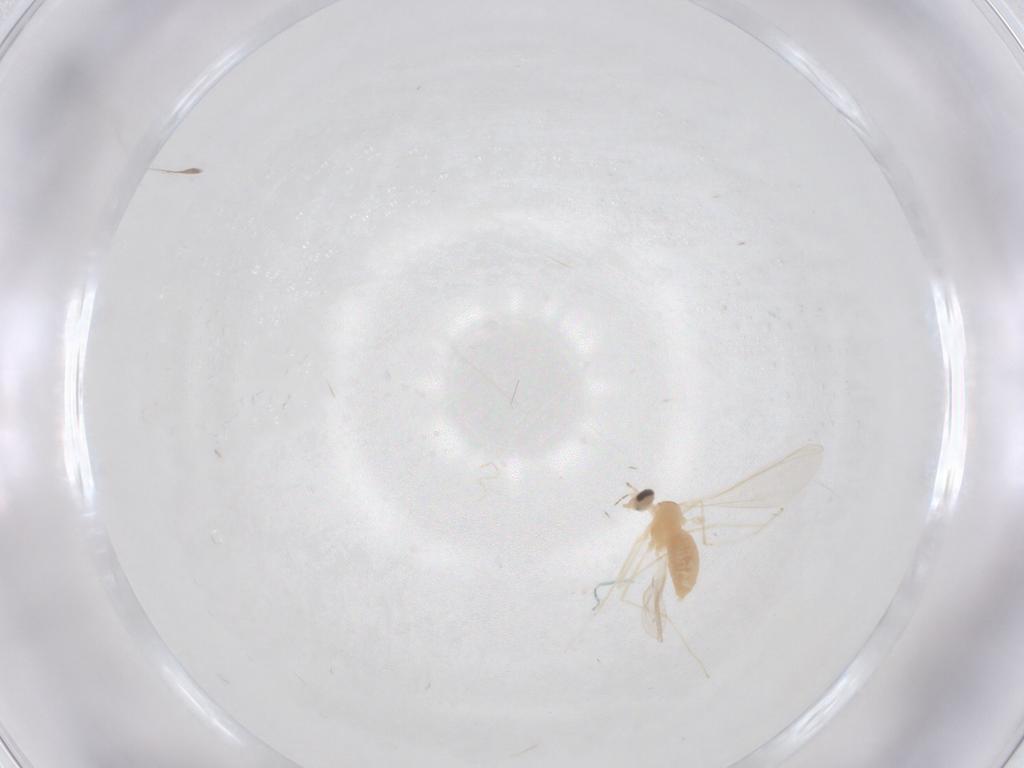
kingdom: Animalia
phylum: Arthropoda
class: Insecta
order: Diptera
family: Cecidomyiidae
